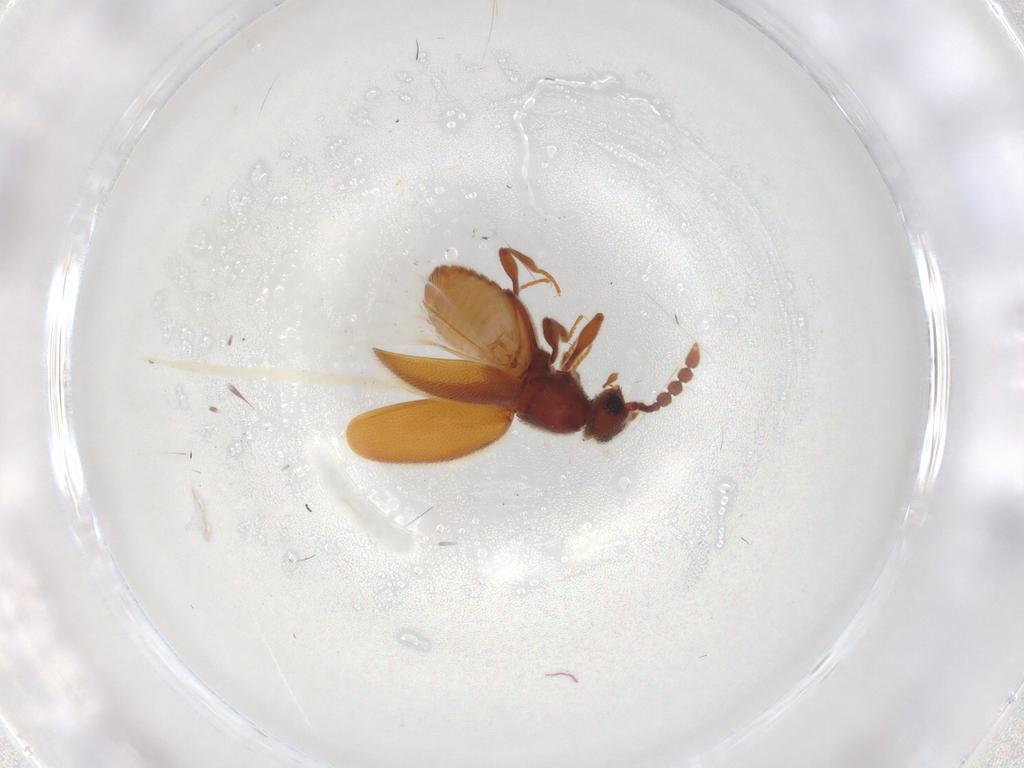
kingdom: Animalia
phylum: Arthropoda
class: Insecta
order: Coleoptera
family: Staphylinidae
